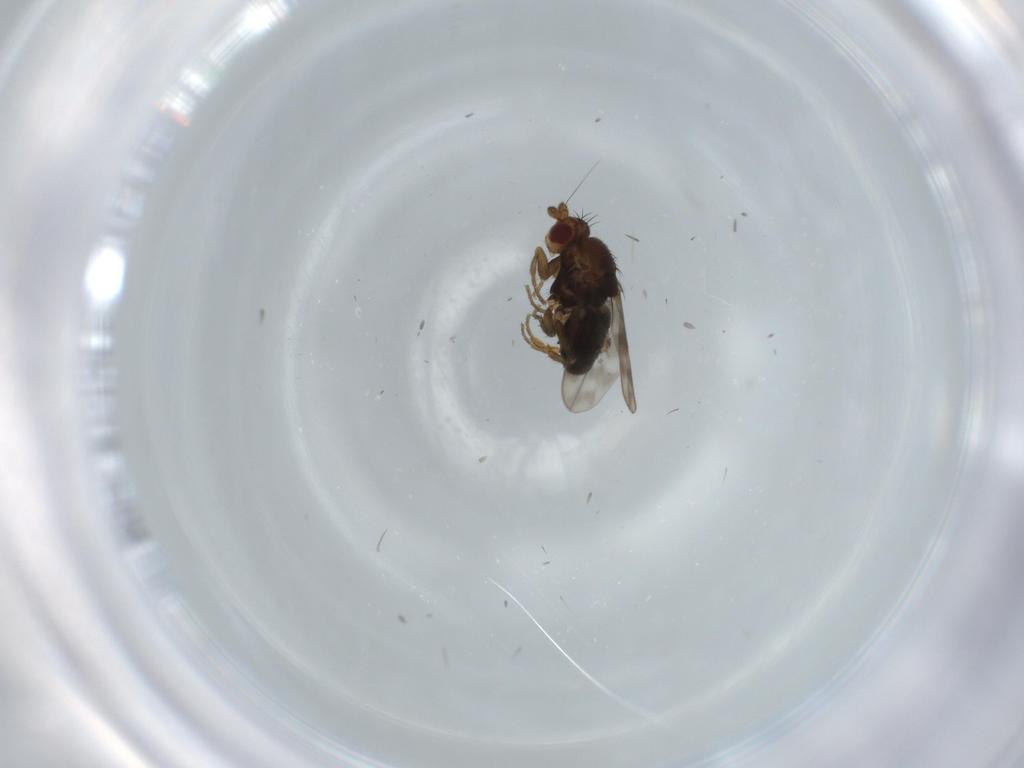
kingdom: Animalia
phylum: Arthropoda
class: Insecta
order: Diptera
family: Sphaeroceridae
